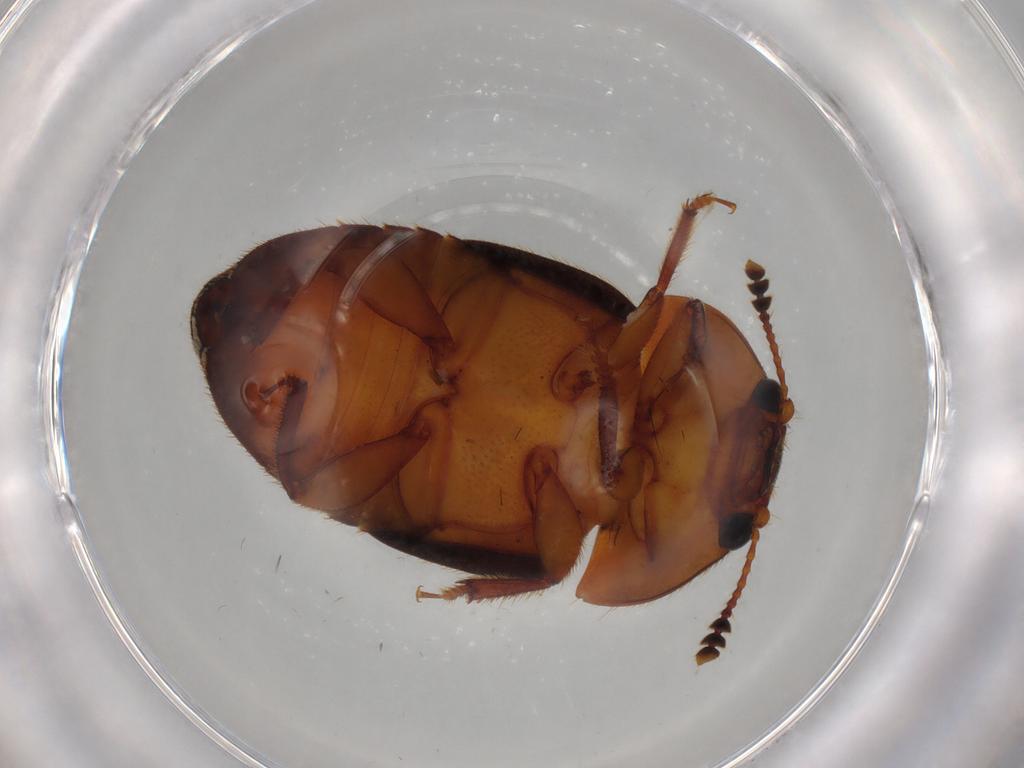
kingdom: Animalia
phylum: Arthropoda
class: Insecta
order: Coleoptera
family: Nitidulidae
